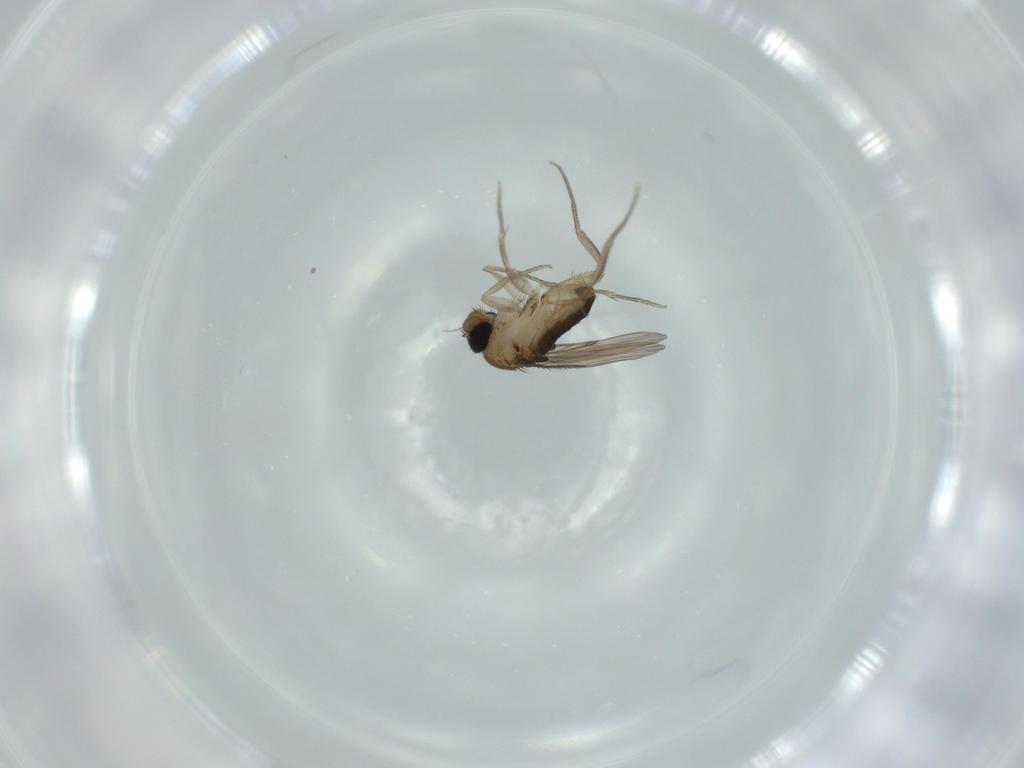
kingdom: Animalia
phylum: Arthropoda
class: Insecta
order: Diptera
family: Phoridae
